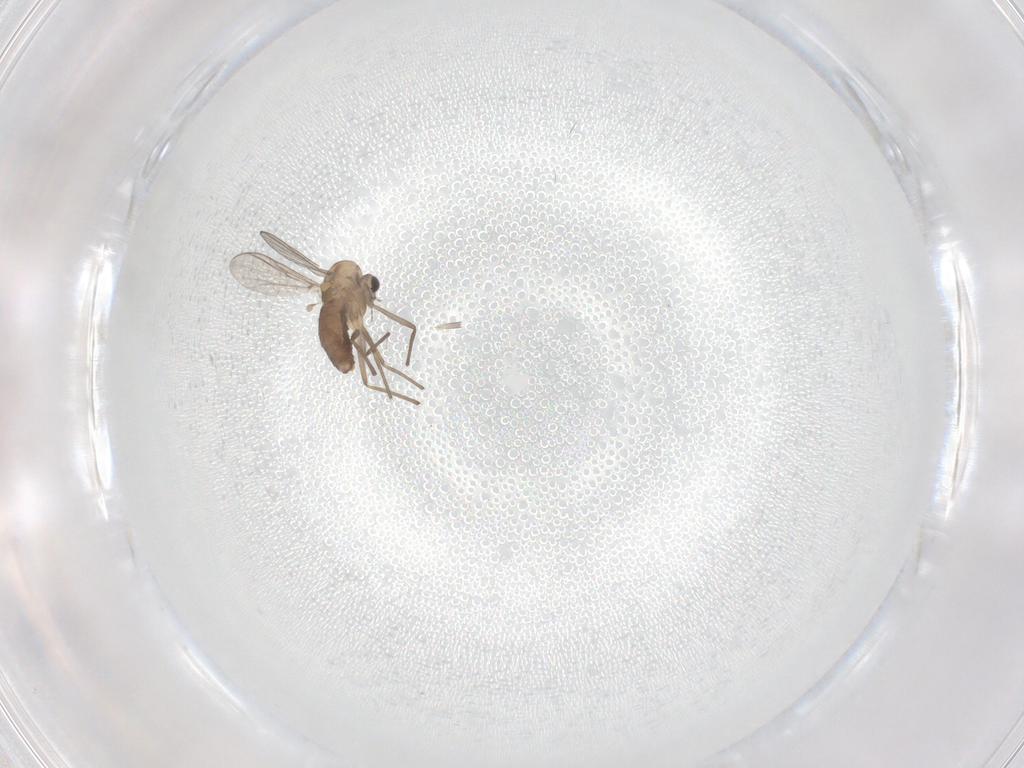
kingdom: Animalia
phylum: Arthropoda
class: Insecta
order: Diptera
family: Chironomidae
